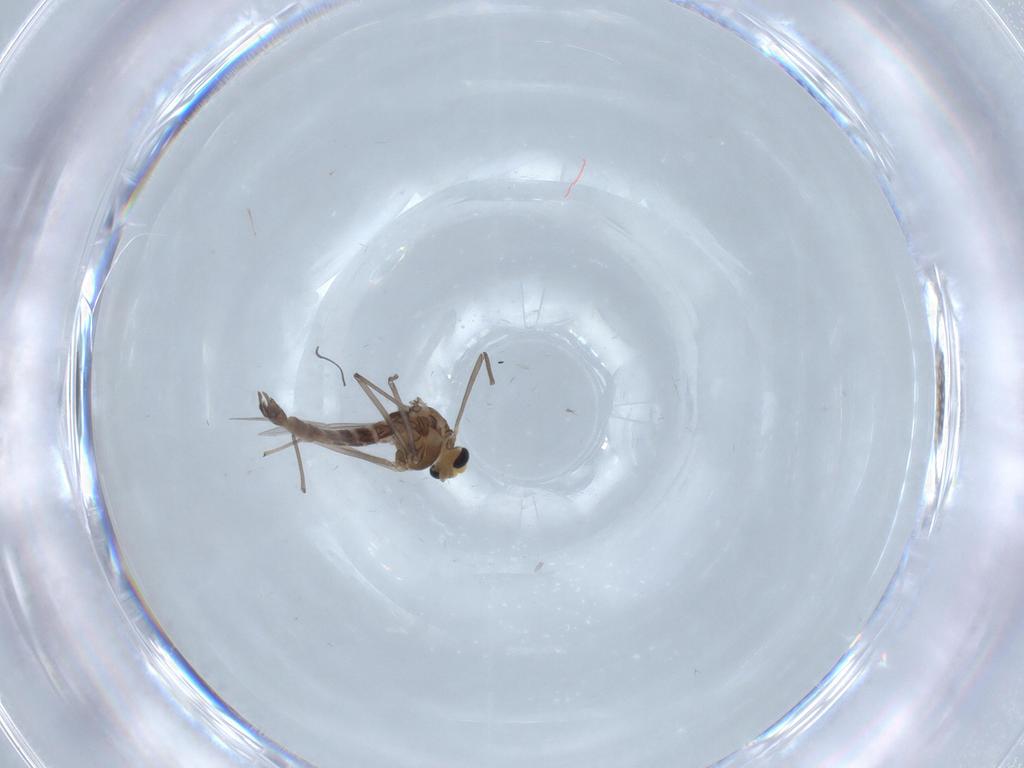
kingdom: Animalia
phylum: Arthropoda
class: Insecta
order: Diptera
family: Chironomidae
